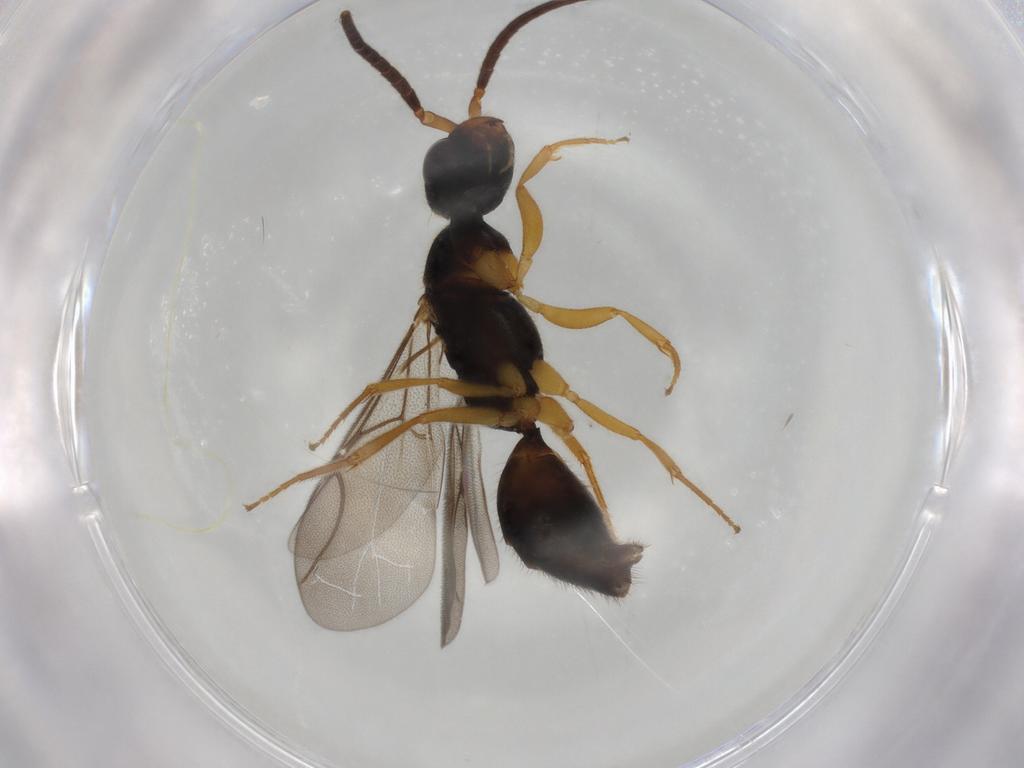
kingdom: Animalia
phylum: Arthropoda
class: Insecta
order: Hymenoptera
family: Bethylidae
